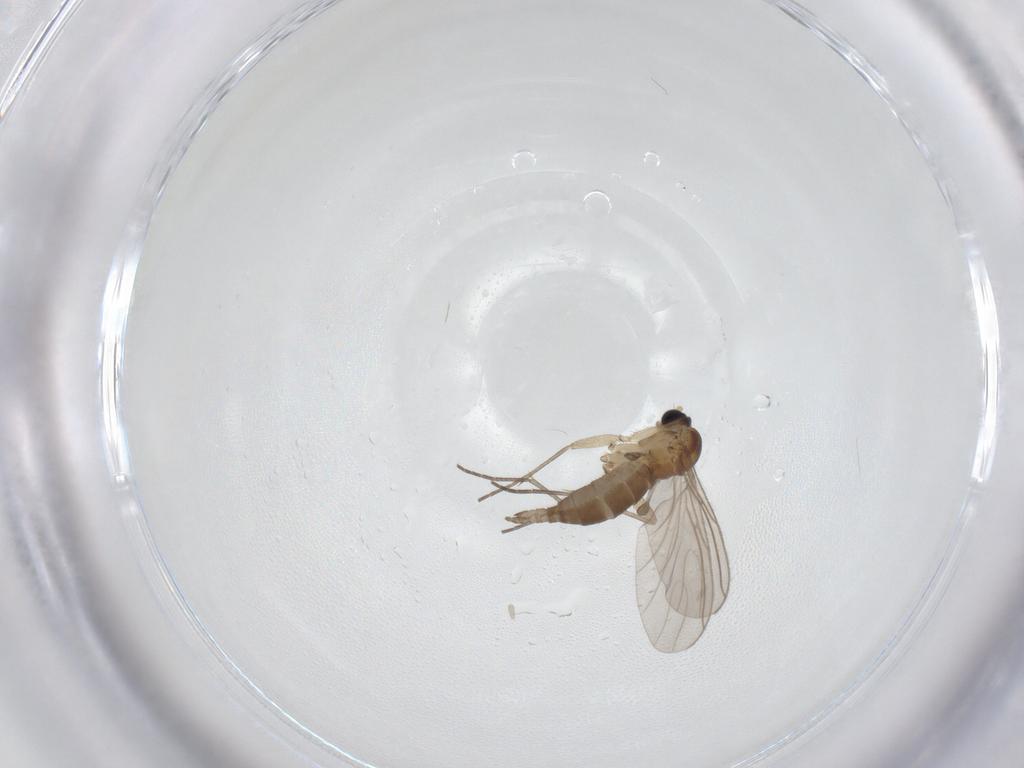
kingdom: Animalia
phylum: Arthropoda
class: Insecta
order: Diptera
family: Sciaridae
